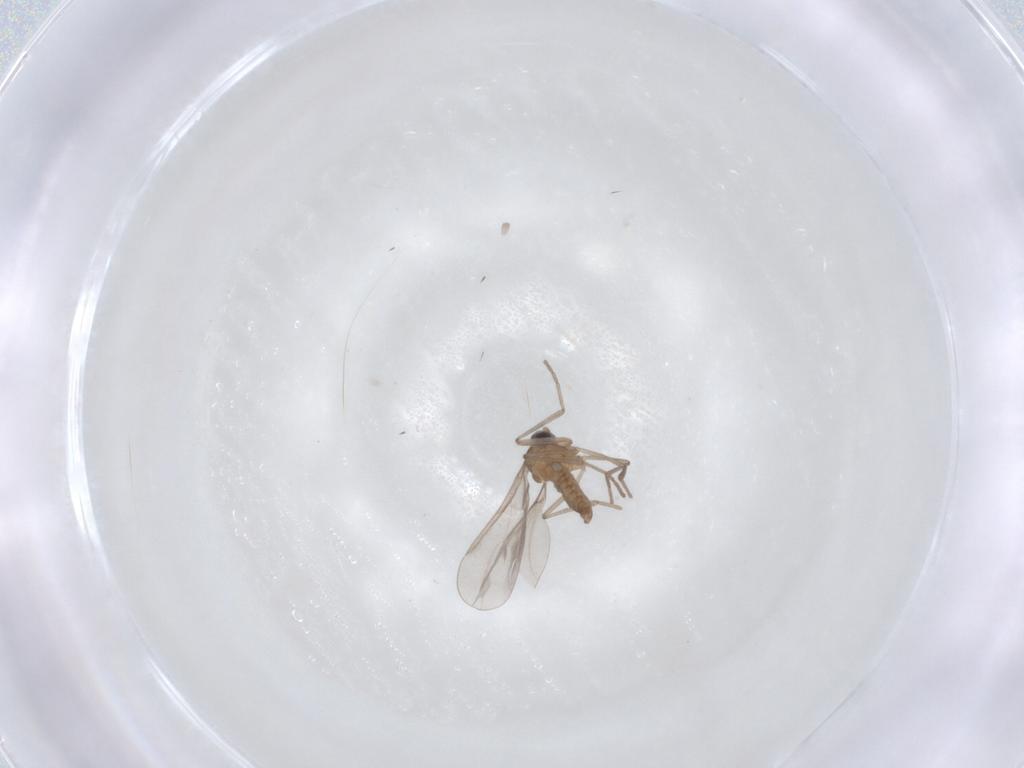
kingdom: Animalia
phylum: Arthropoda
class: Insecta
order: Diptera
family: Cecidomyiidae
